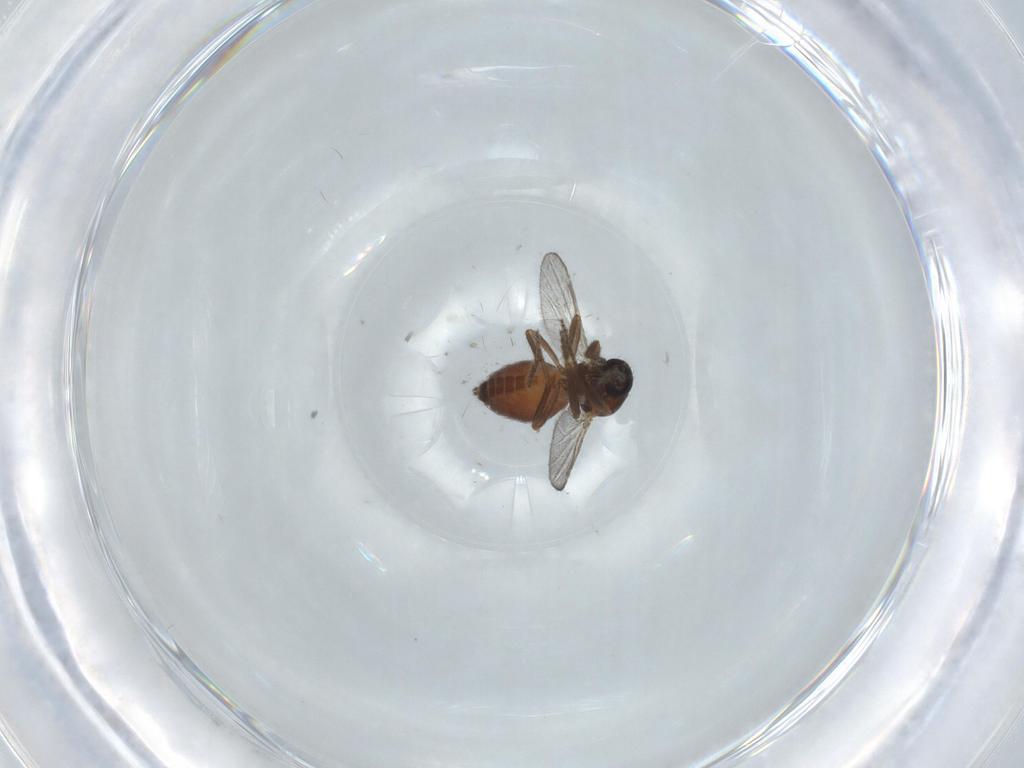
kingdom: Animalia
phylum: Arthropoda
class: Insecta
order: Diptera
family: Ceratopogonidae
